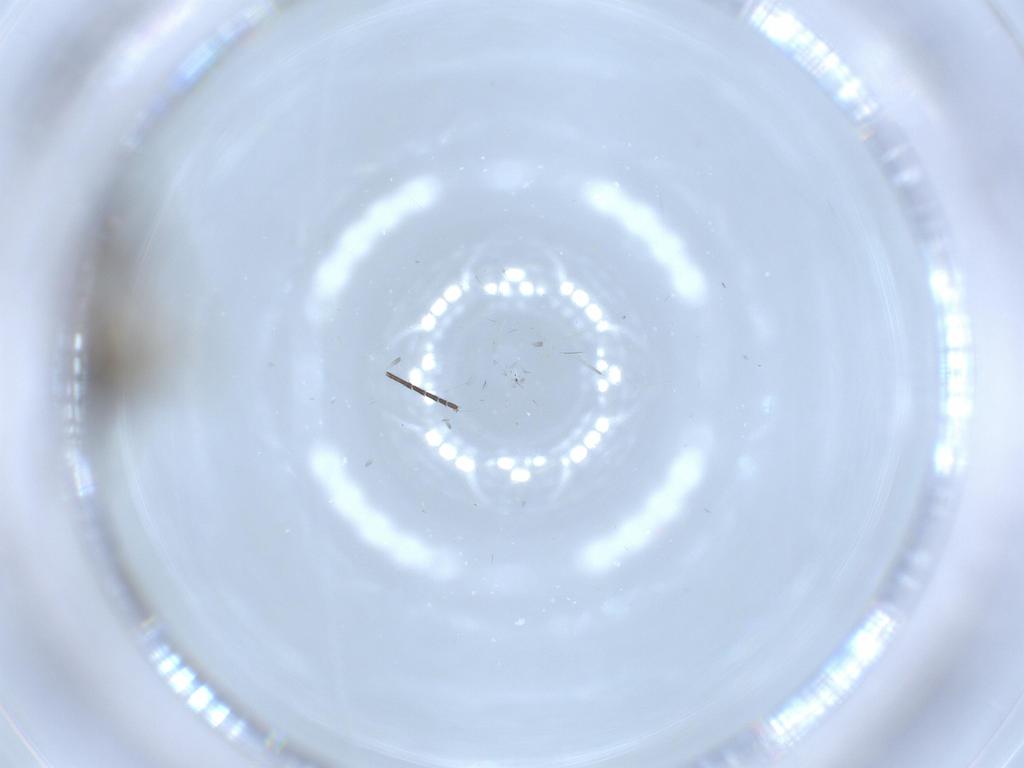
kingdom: Animalia
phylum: Arthropoda
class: Insecta
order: Diptera
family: Sciaridae
